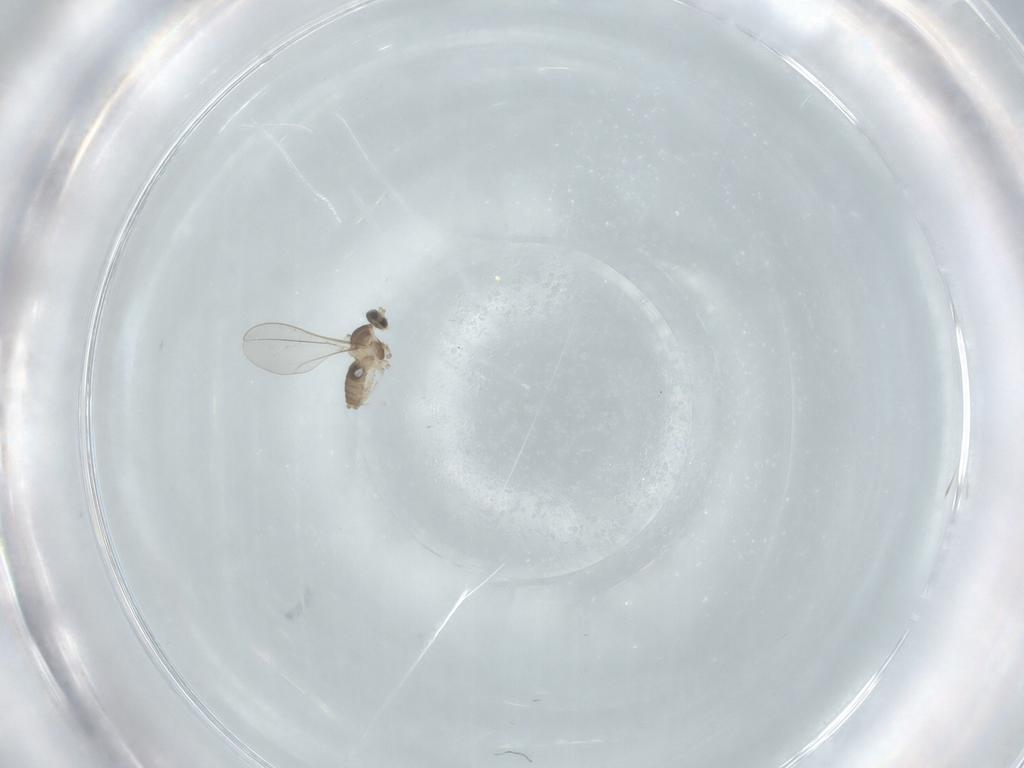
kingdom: Animalia
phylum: Arthropoda
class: Insecta
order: Diptera
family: Cecidomyiidae
